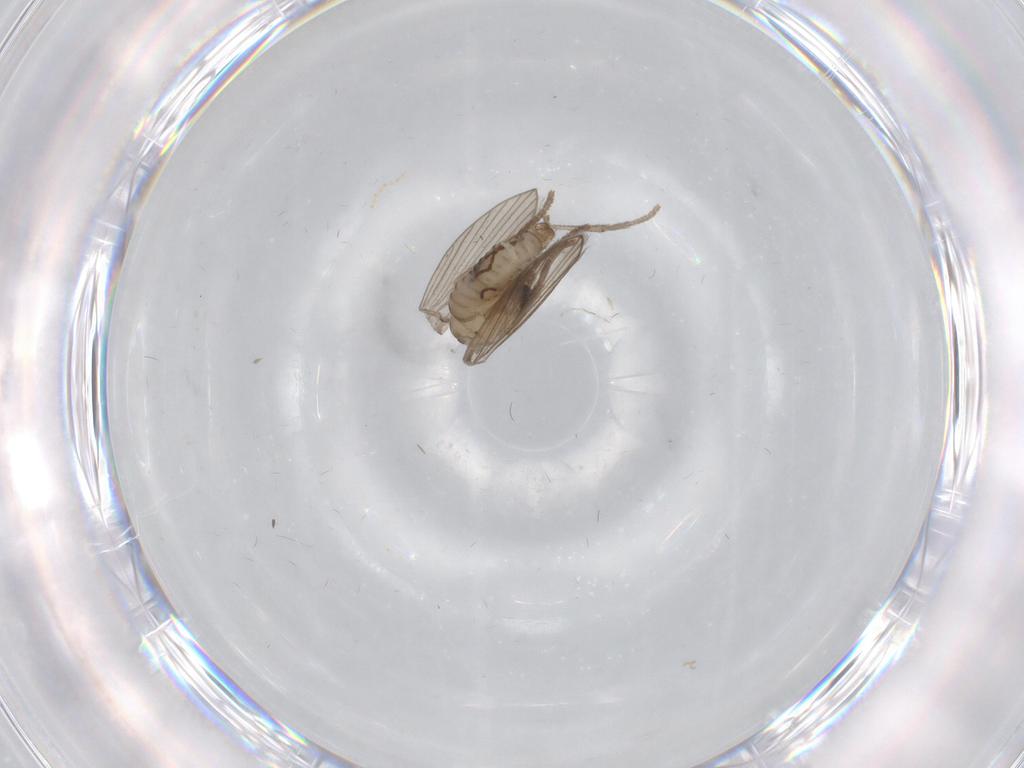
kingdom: Animalia
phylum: Arthropoda
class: Insecta
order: Diptera
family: Psychodidae
